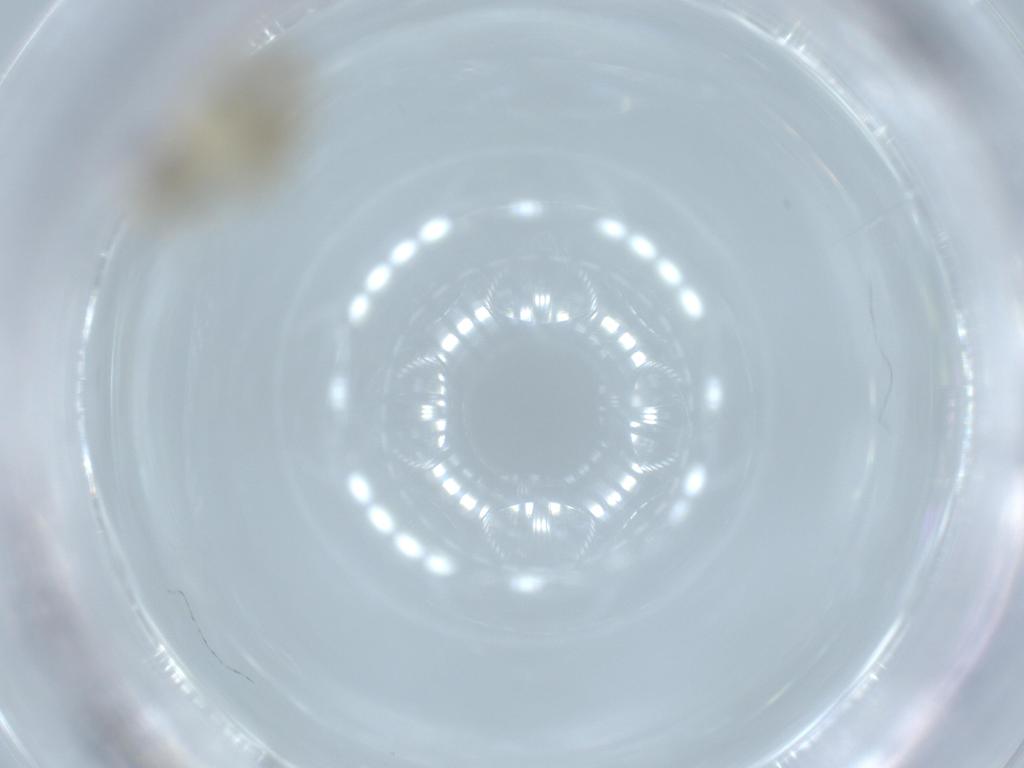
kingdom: Animalia
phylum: Arthropoda
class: Insecta
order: Psocodea
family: Caeciliusidae
